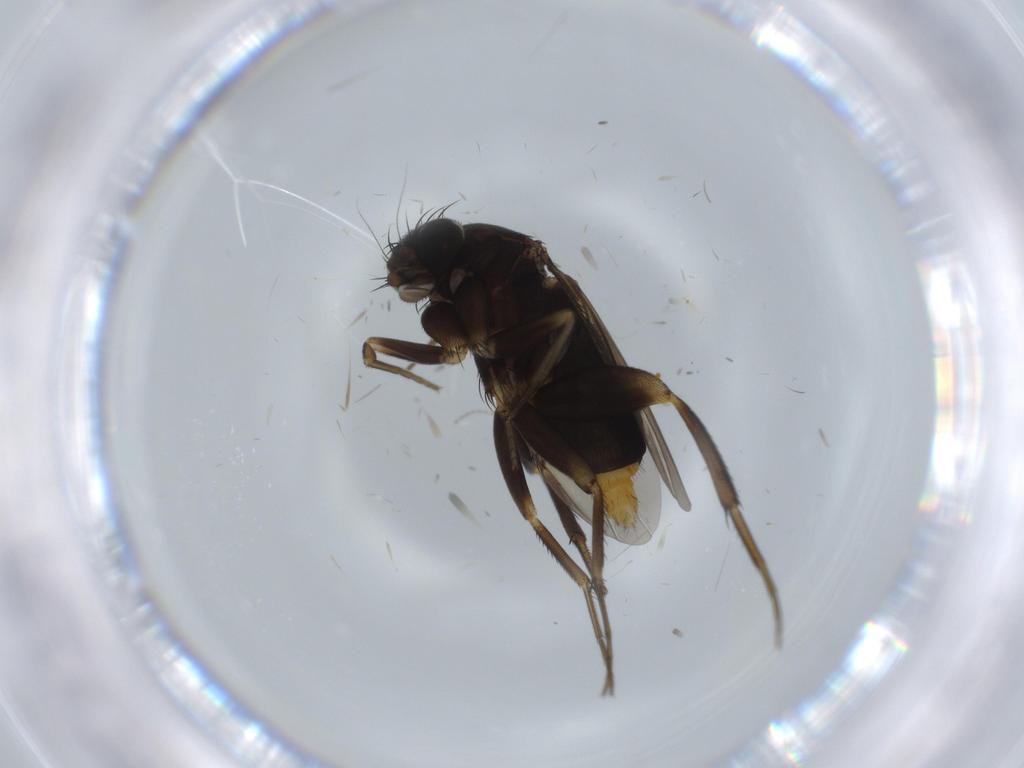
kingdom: Animalia
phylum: Arthropoda
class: Insecta
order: Diptera
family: Phoridae
